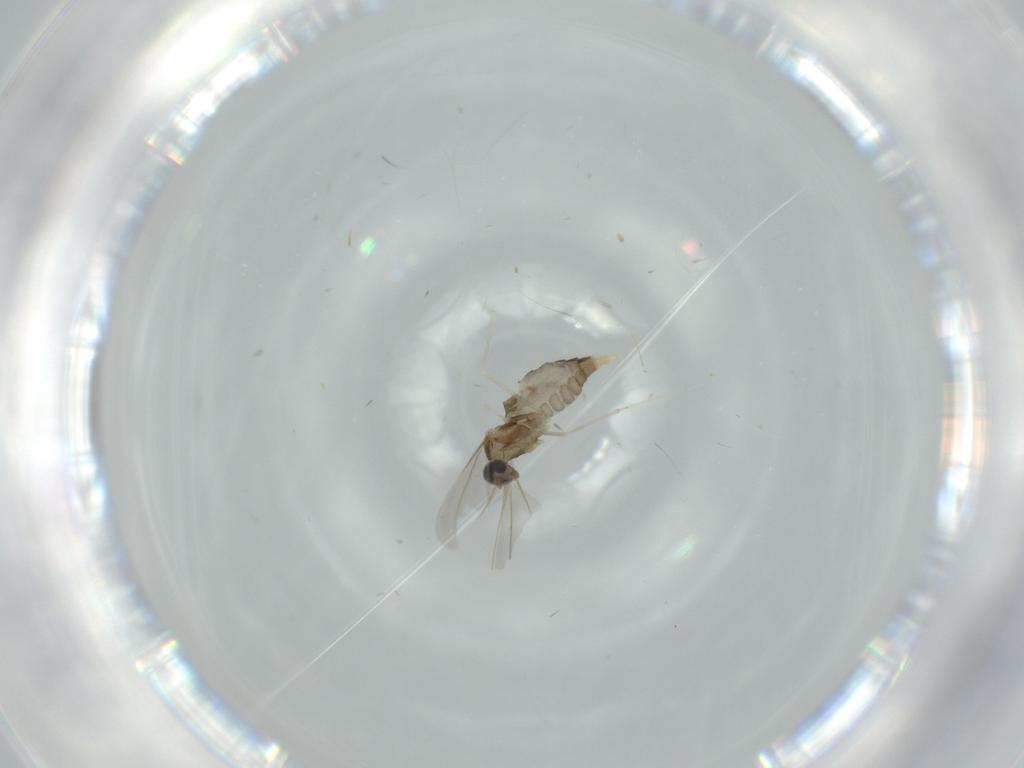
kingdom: Animalia
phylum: Arthropoda
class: Insecta
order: Diptera
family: Cecidomyiidae
